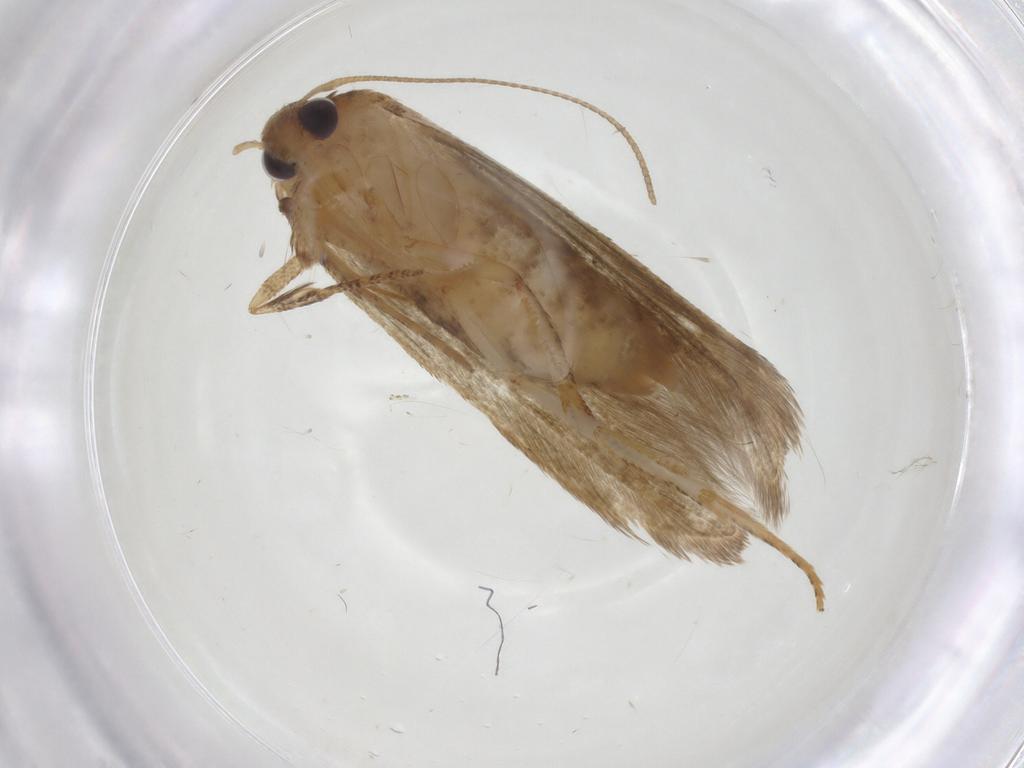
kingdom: Animalia
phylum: Arthropoda
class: Insecta
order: Lepidoptera
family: Blastobasidae
